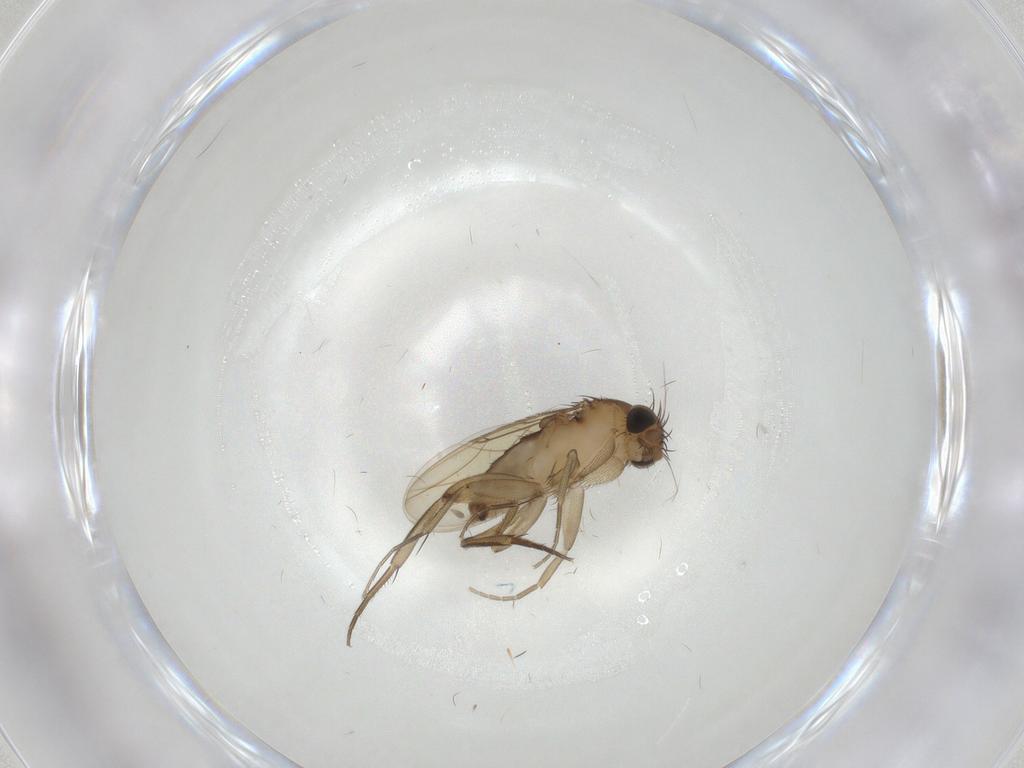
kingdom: Animalia
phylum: Arthropoda
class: Insecta
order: Diptera
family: Phoridae
